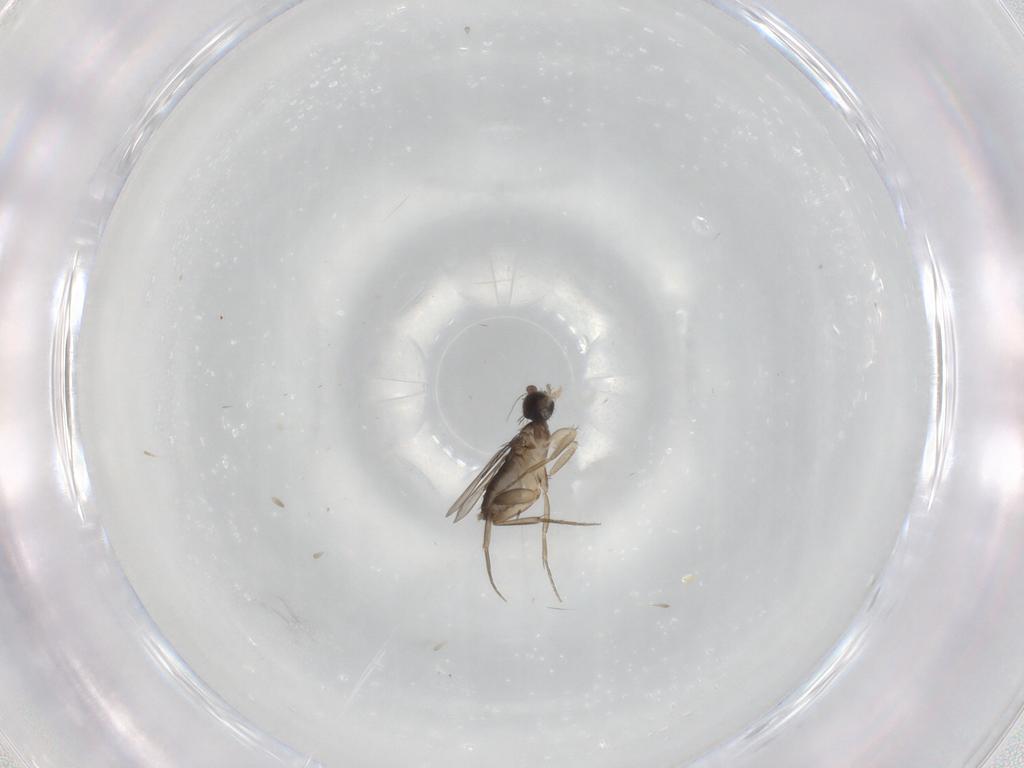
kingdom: Animalia
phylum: Arthropoda
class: Insecta
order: Diptera
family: Phoridae
